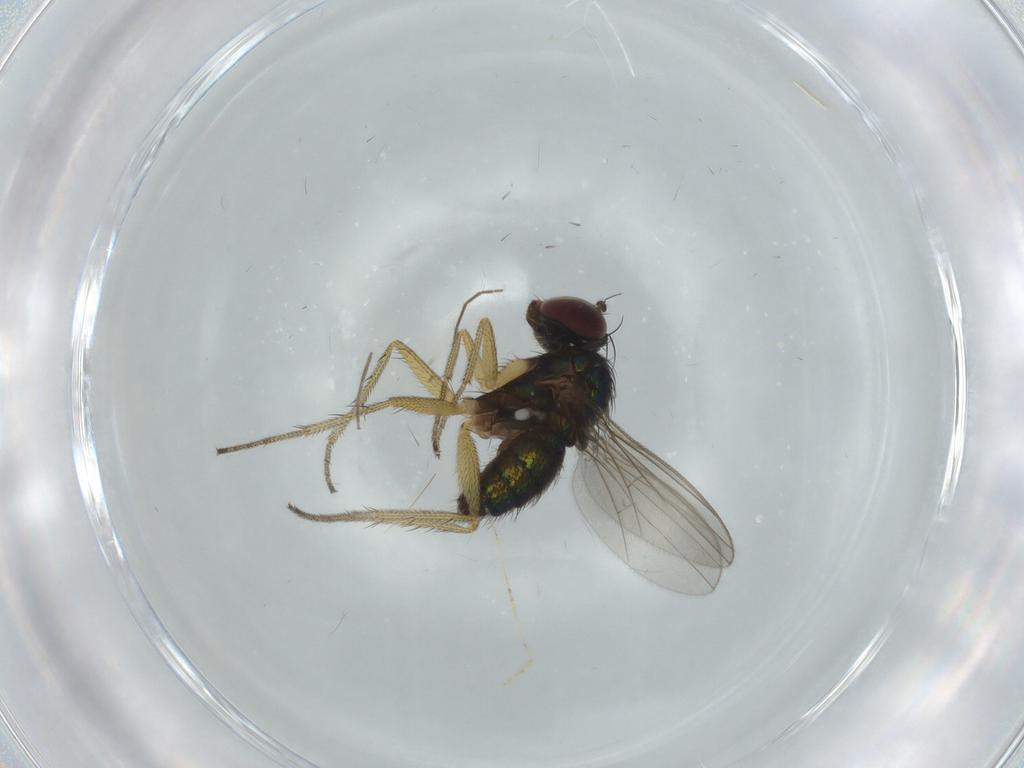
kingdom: Animalia
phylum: Arthropoda
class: Insecta
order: Diptera
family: Dolichopodidae
